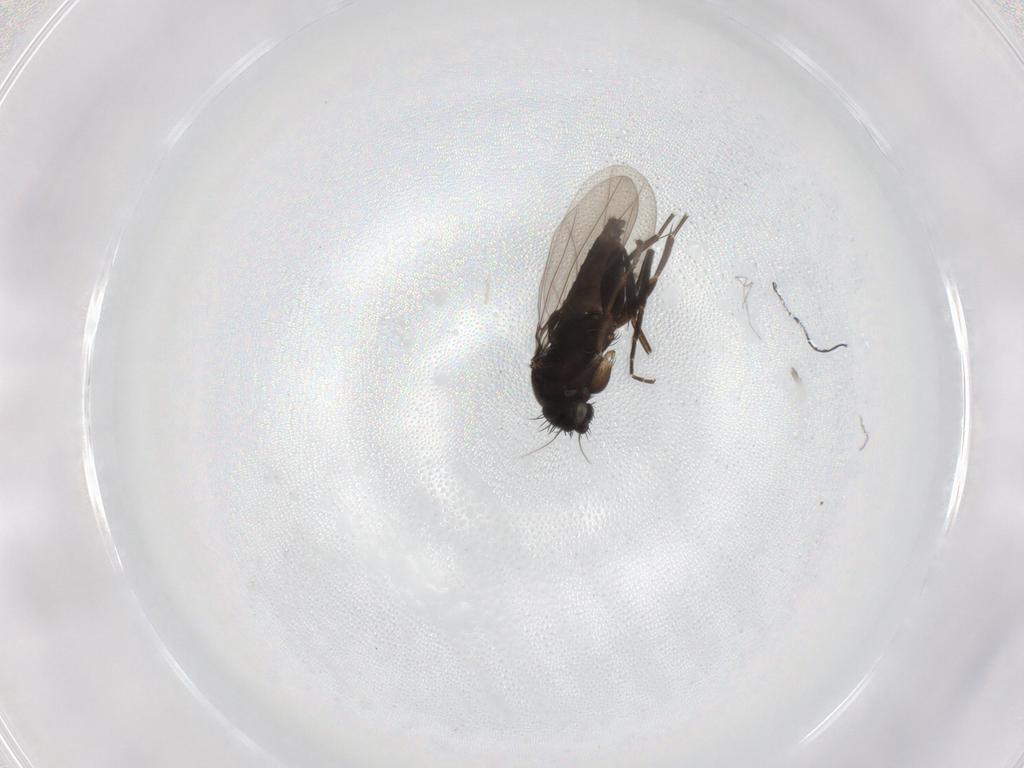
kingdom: Animalia
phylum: Arthropoda
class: Insecta
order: Diptera
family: Phoridae
